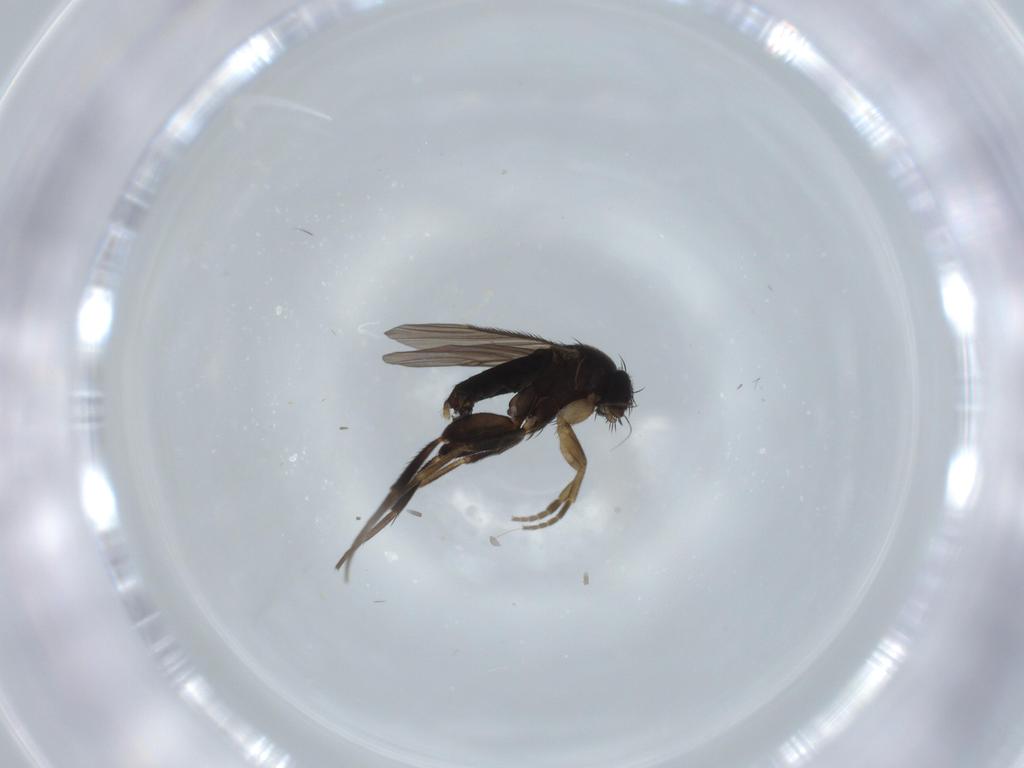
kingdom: Animalia
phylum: Arthropoda
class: Insecta
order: Diptera
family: Phoridae
